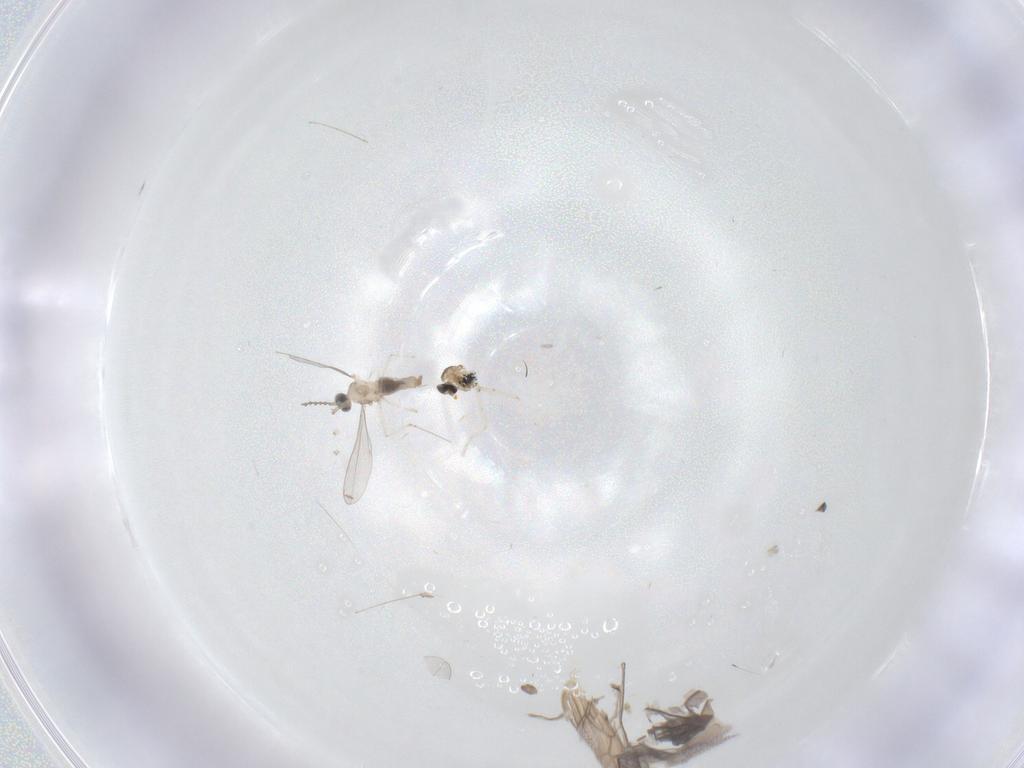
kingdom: Animalia
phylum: Arthropoda
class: Insecta
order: Diptera
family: Cecidomyiidae
